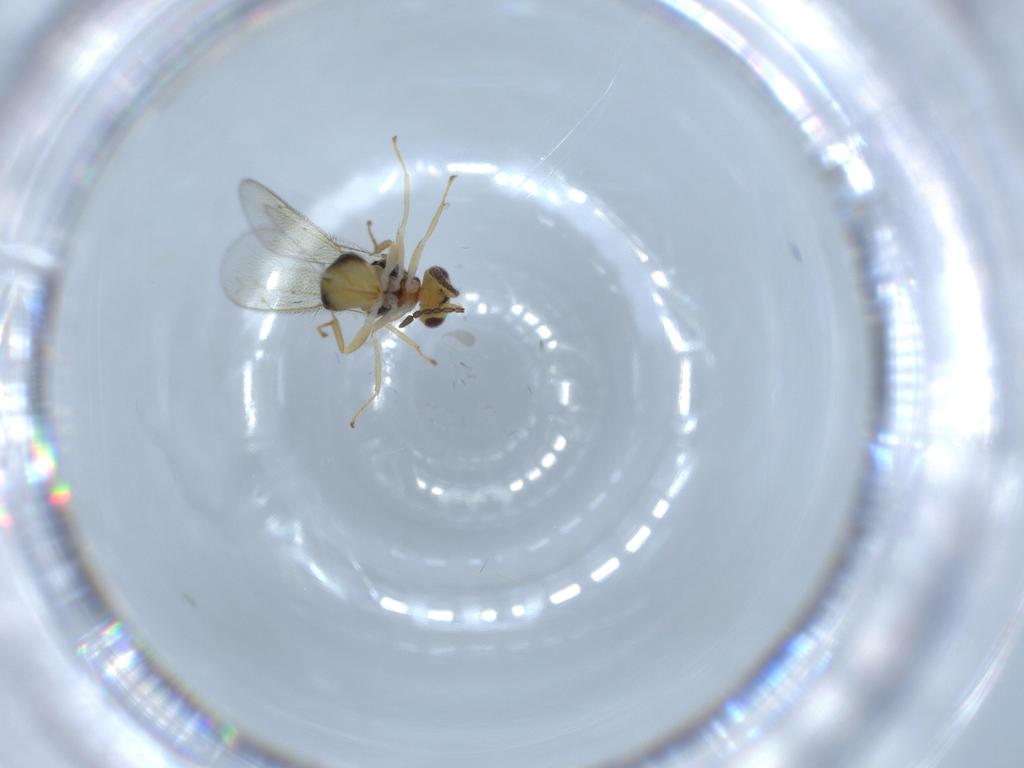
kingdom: Animalia
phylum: Arthropoda
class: Insecta
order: Hymenoptera
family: Eulophidae
